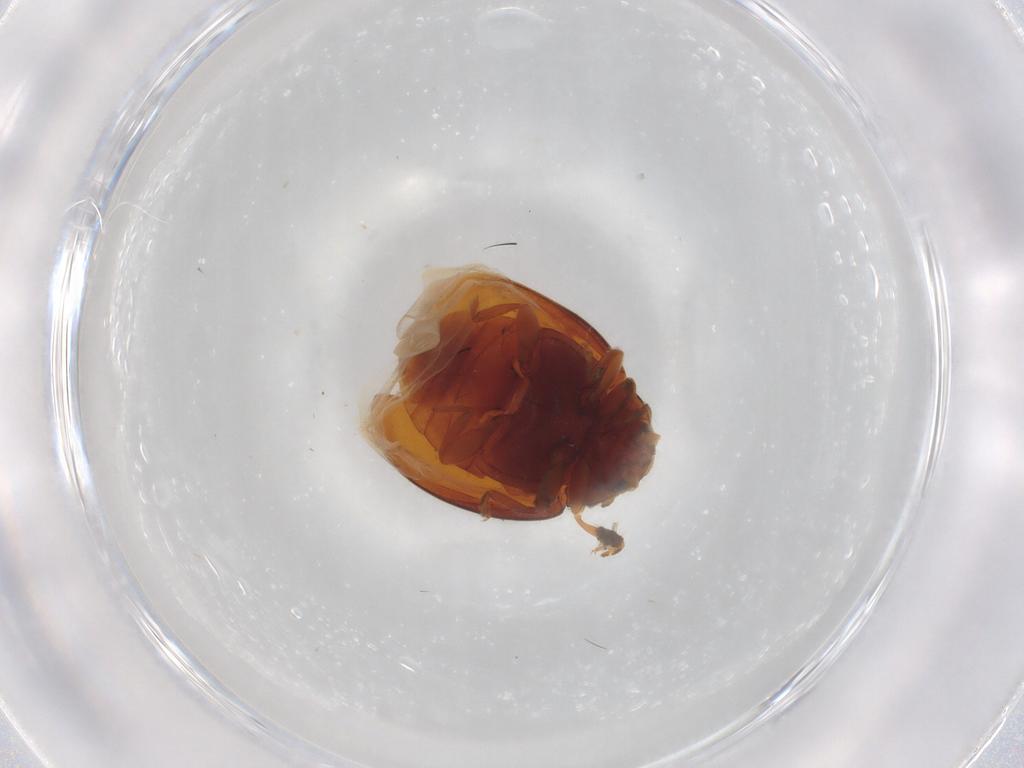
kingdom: Animalia
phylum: Arthropoda
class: Insecta
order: Coleoptera
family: Coccinellidae
